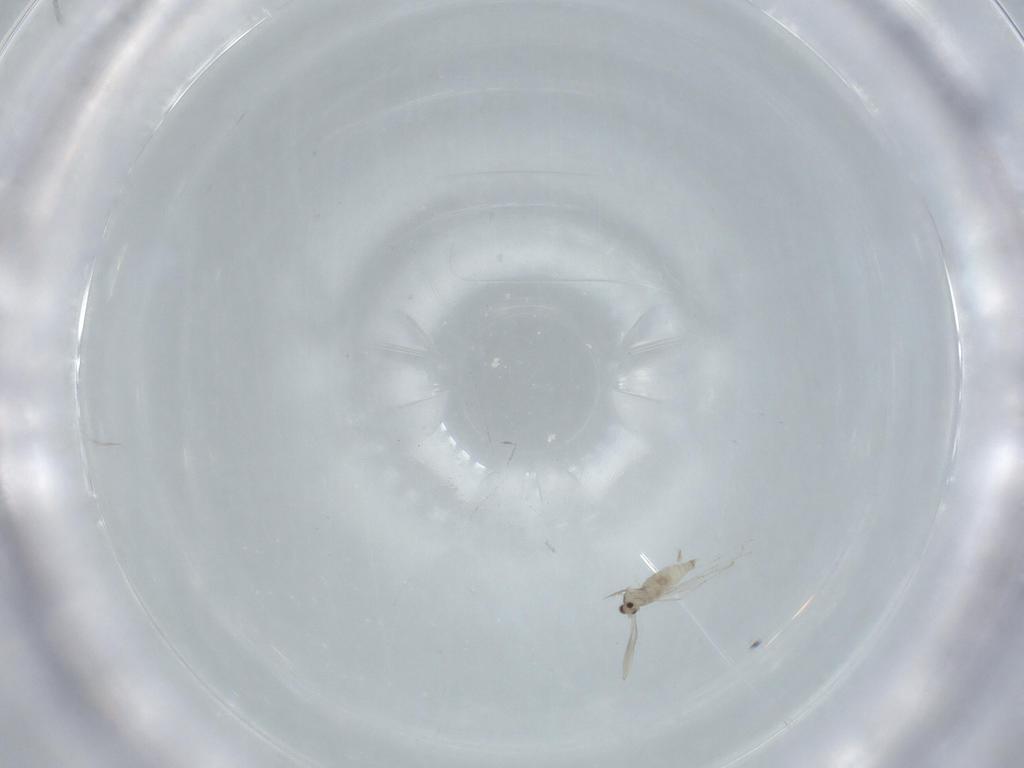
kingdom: Animalia
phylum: Arthropoda
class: Insecta
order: Diptera
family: Cecidomyiidae
